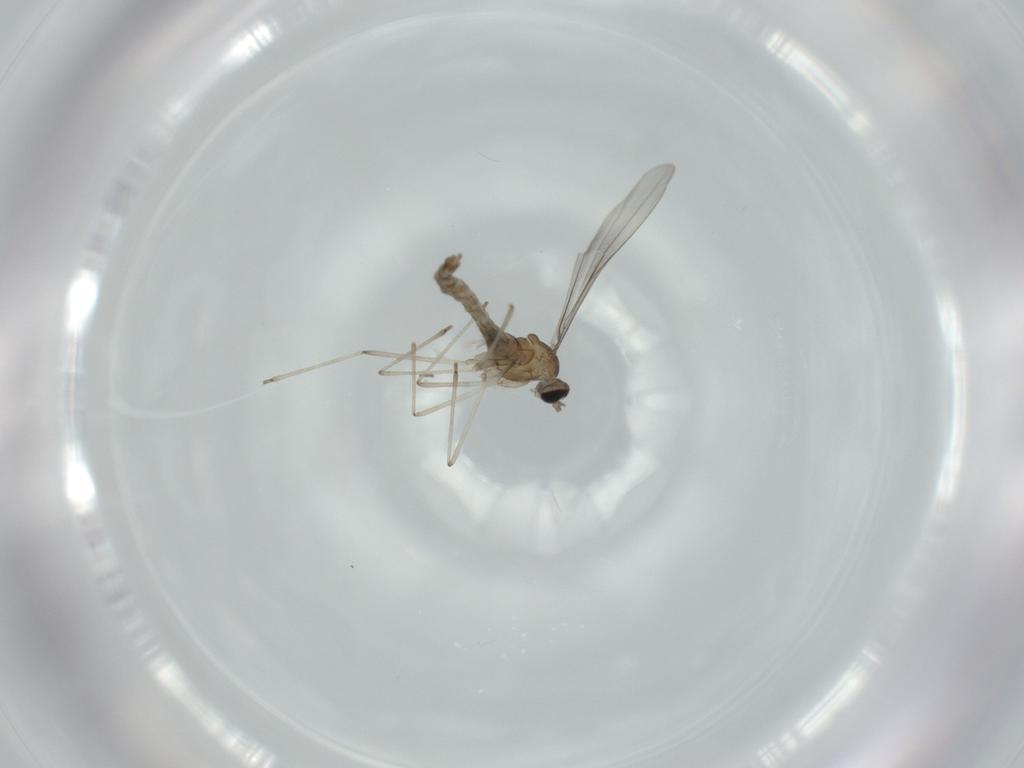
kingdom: Animalia
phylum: Arthropoda
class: Insecta
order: Diptera
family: Cecidomyiidae
